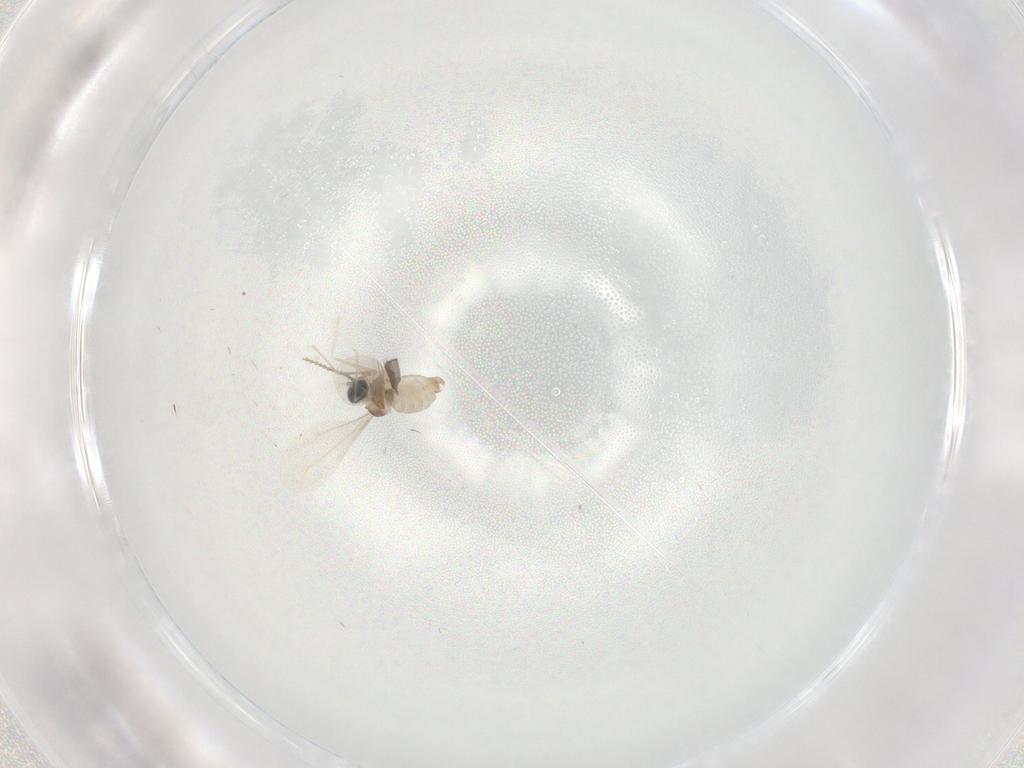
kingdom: Animalia
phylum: Arthropoda
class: Insecta
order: Diptera
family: Cecidomyiidae
